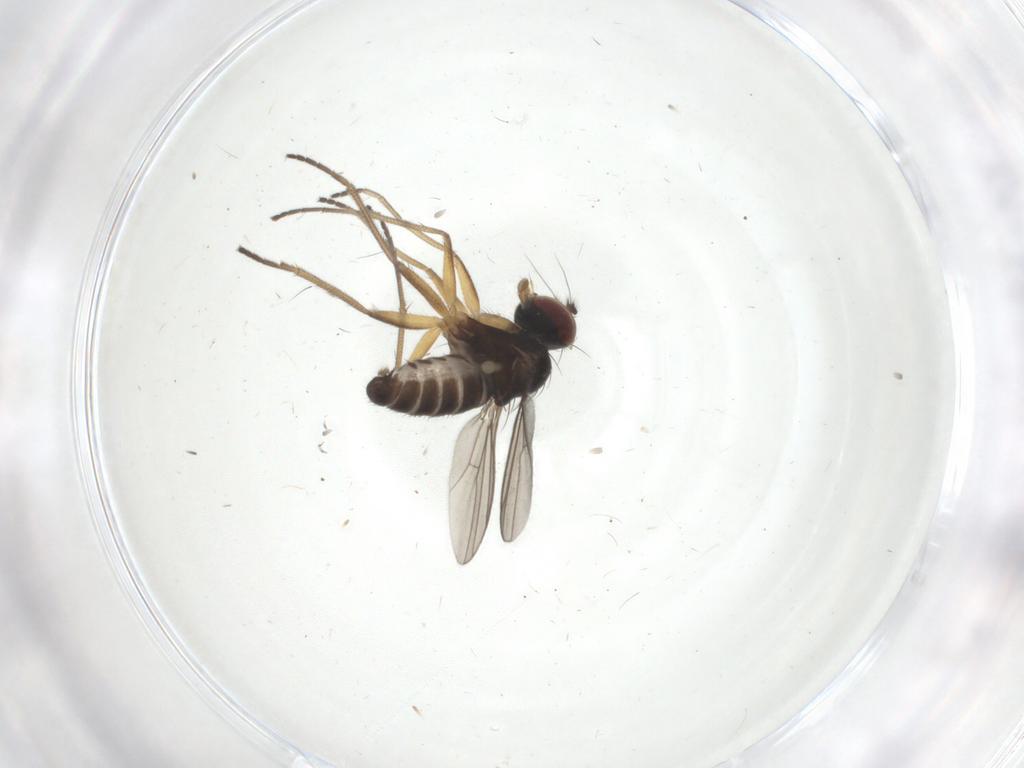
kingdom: Animalia
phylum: Arthropoda
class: Insecta
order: Diptera
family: Dolichopodidae
